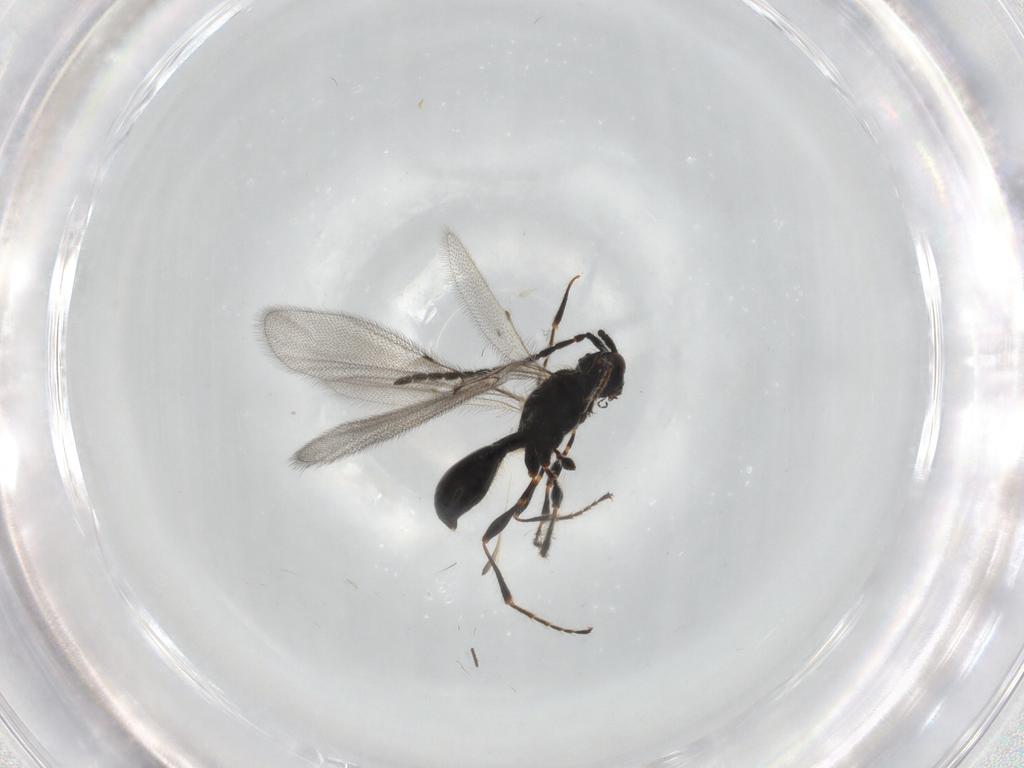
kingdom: Animalia
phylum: Arthropoda
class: Insecta
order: Hymenoptera
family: Diapriidae
